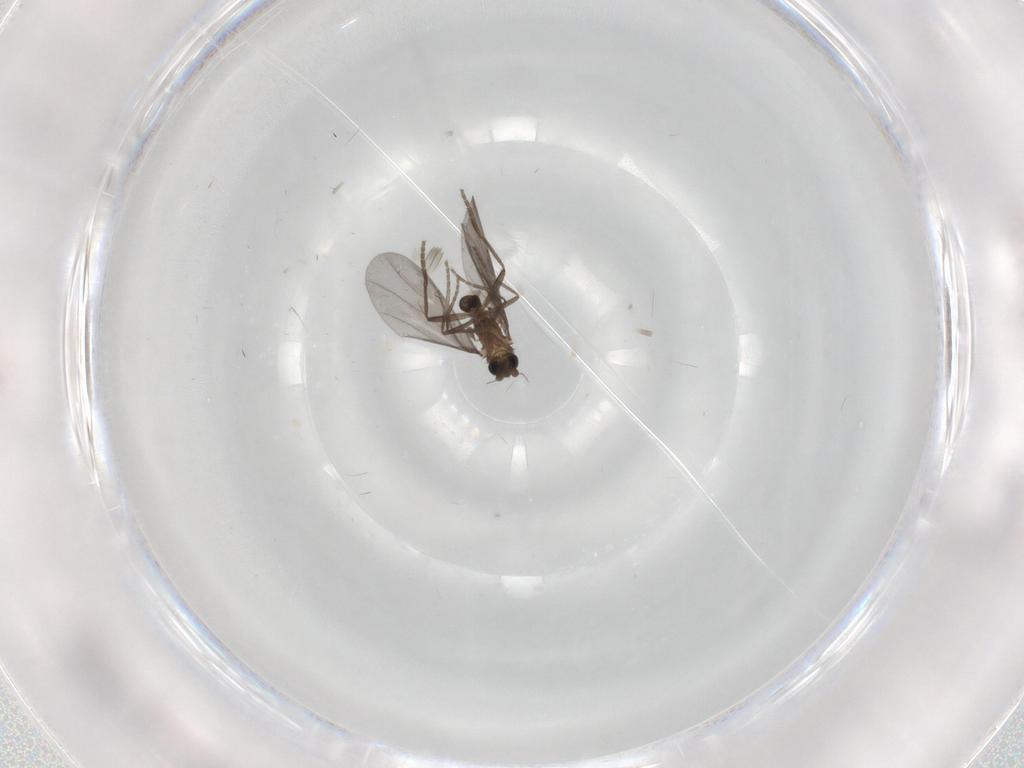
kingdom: Animalia
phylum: Arthropoda
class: Insecta
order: Diptera
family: Phoridae
